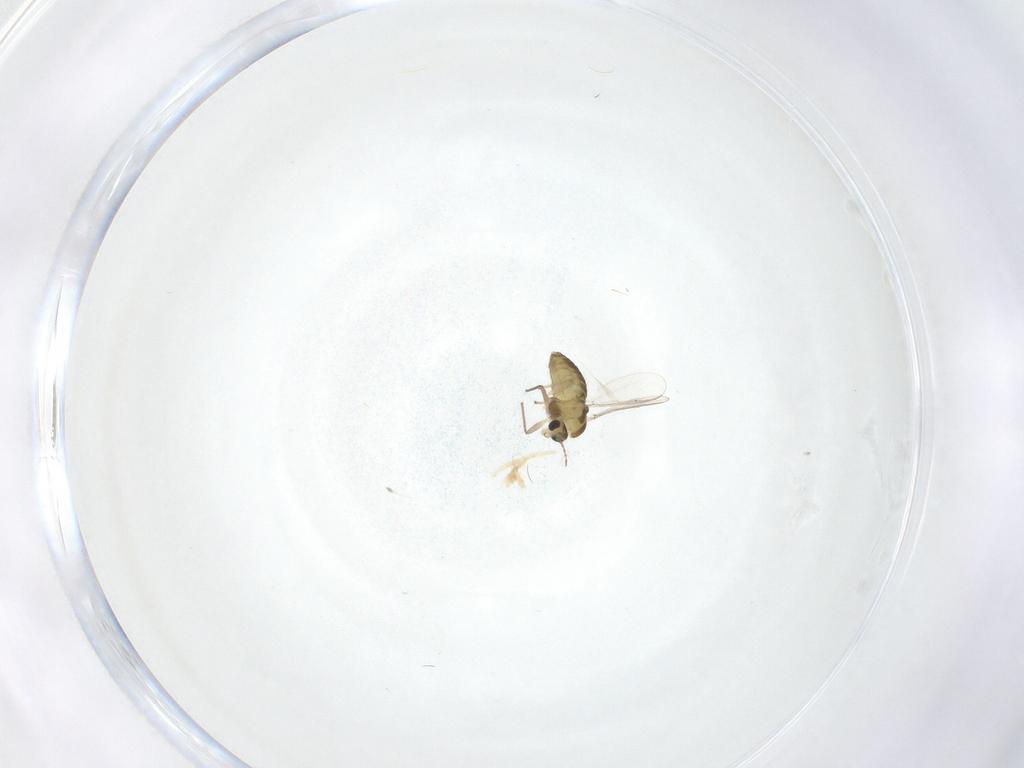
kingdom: Animalia
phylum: Arthropoda
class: Insecta
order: Diptera
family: Chironomidae
